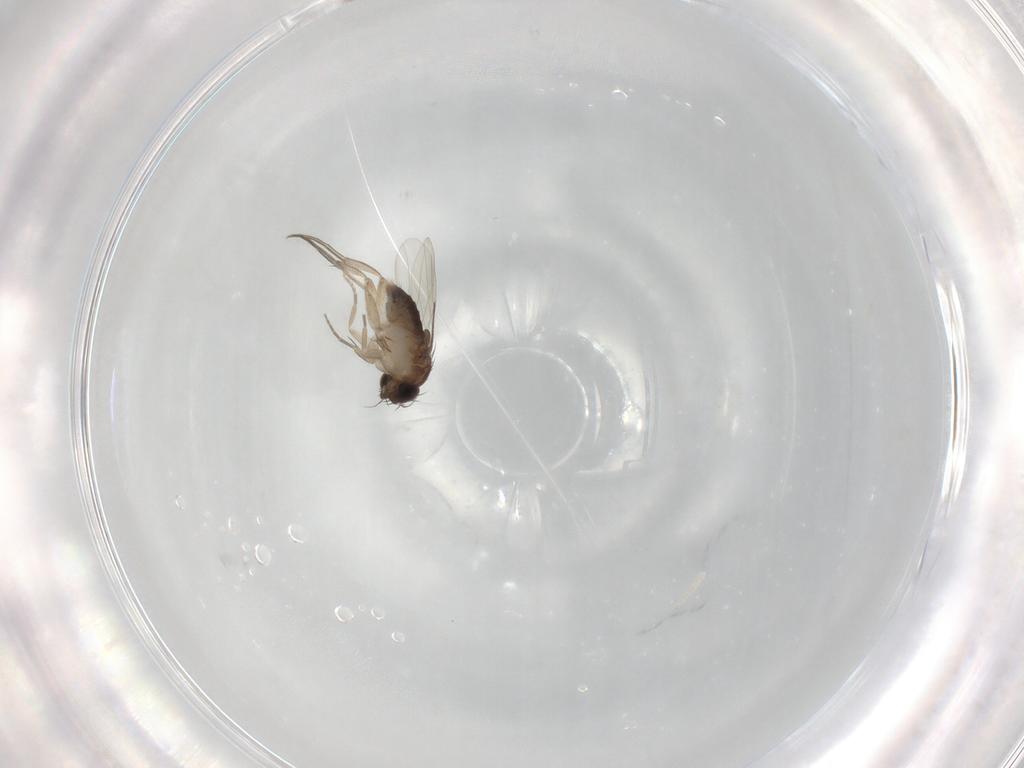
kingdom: Animalia
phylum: Arthropoda
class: Insecta
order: Diptera
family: Phoridae
